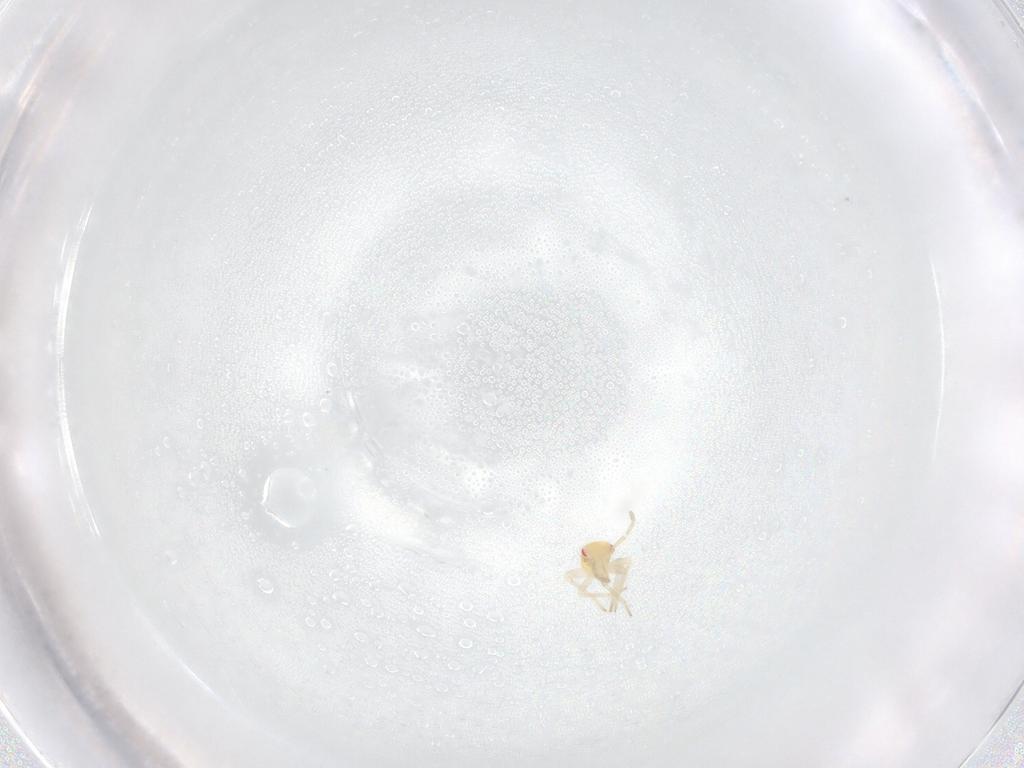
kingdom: Animalia
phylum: Arthropoda
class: Insecta
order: Hemiptera
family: Miridae
